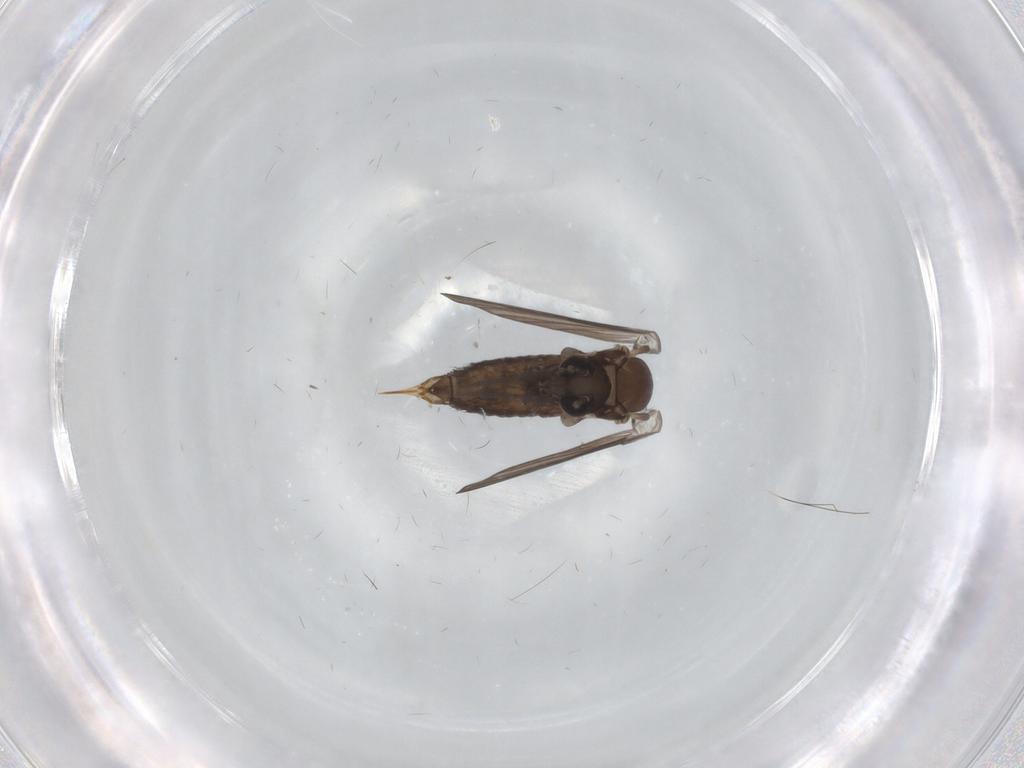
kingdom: Animalia
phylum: Arthropoda
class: Insecta
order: Diptera
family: Psychodidae
